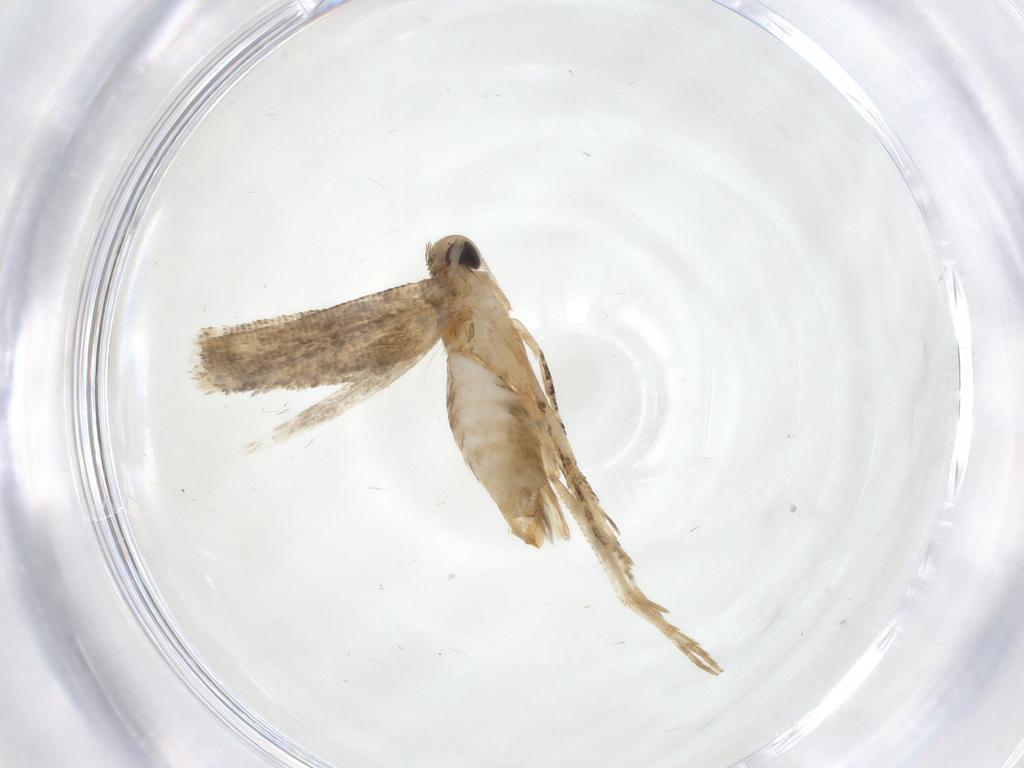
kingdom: Animalia
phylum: Arthropoda
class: Insecta
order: Lepidoptera
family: Gelechiidae
